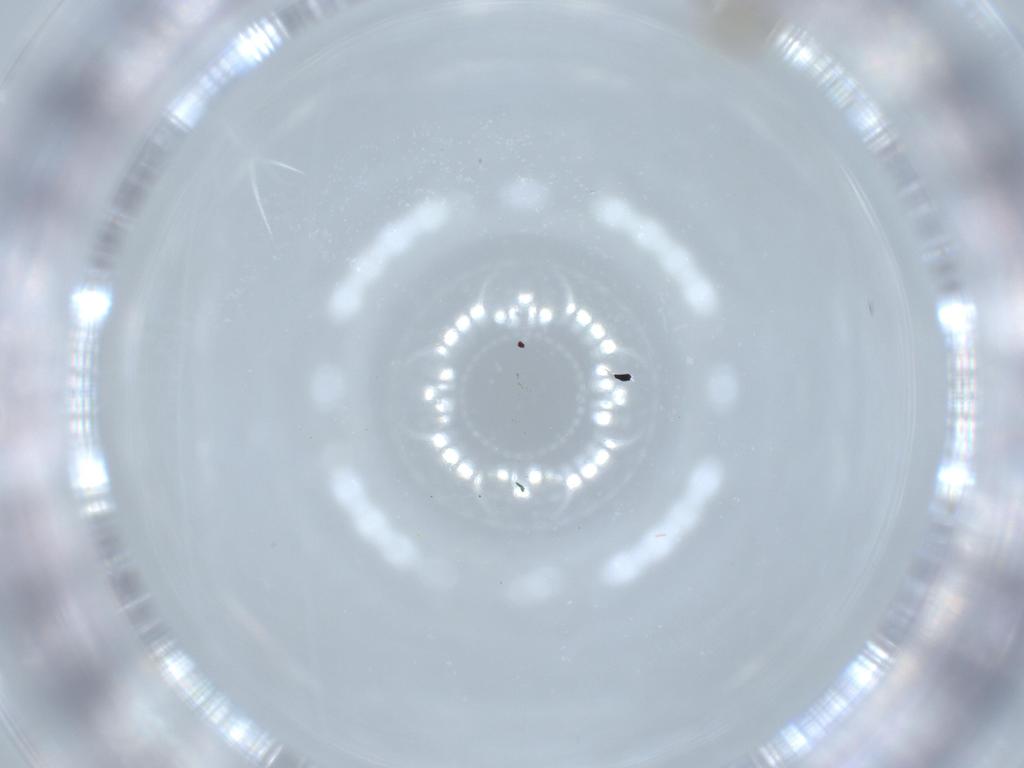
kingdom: Animalia
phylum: Arthropoda
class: Insecta
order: Diptera
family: Cecidomyiidae
